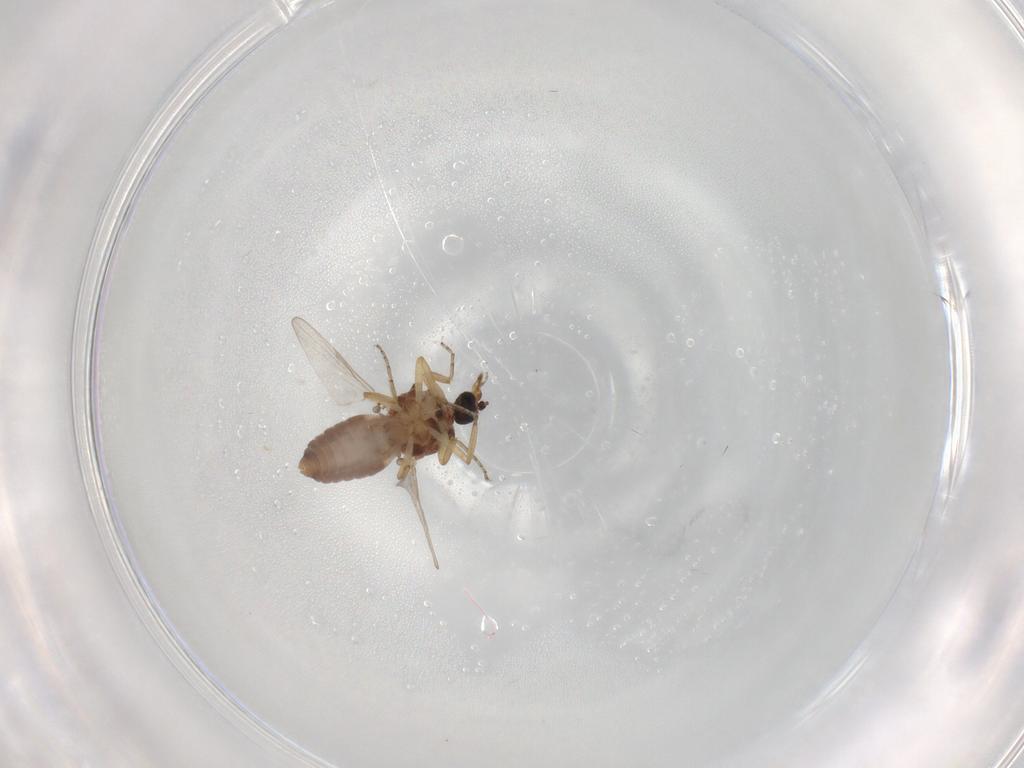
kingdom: Animalia
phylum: Arthropoda
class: Insecta
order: Diptera
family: Ceratopogonidae
